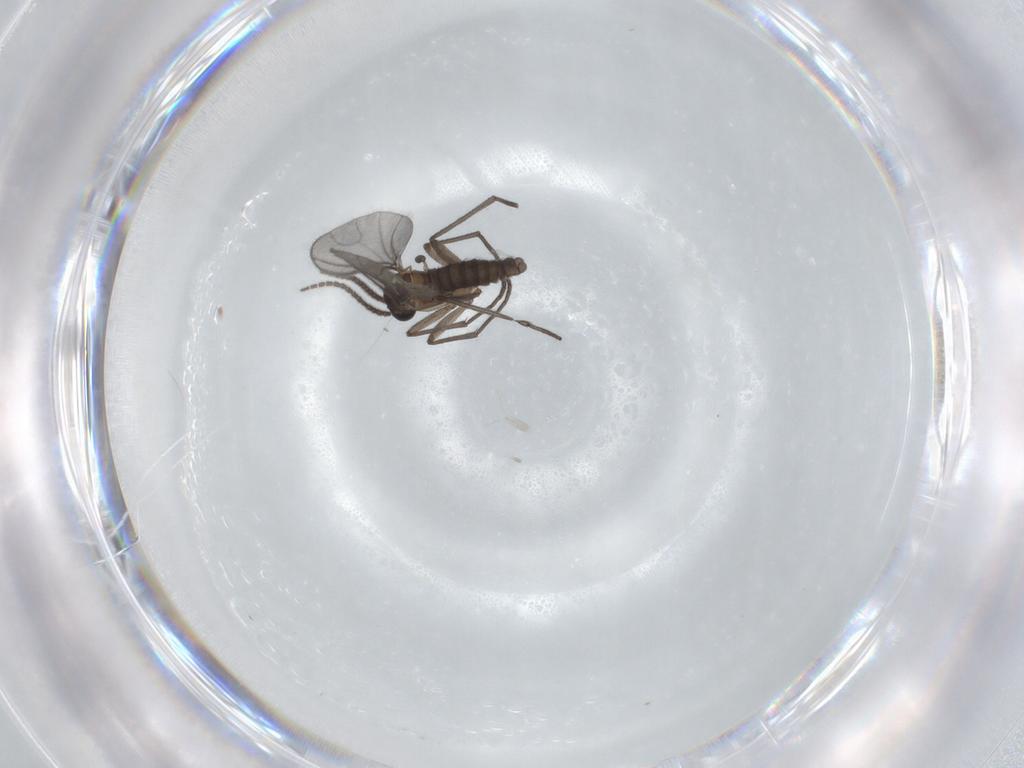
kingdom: Animalia
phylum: Arthropoda
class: Insecta
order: Diptera
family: Sciaridae
